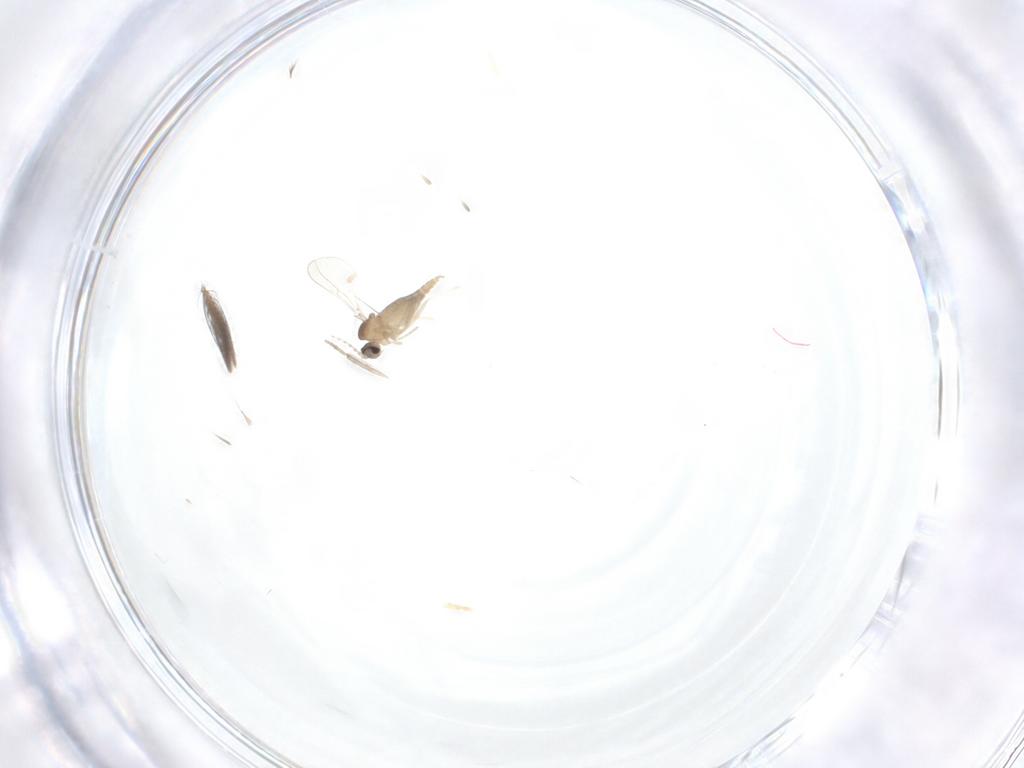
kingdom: Animalia
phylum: Arthropoda
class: Insecta
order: Diptera
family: Cecidomyiidae
